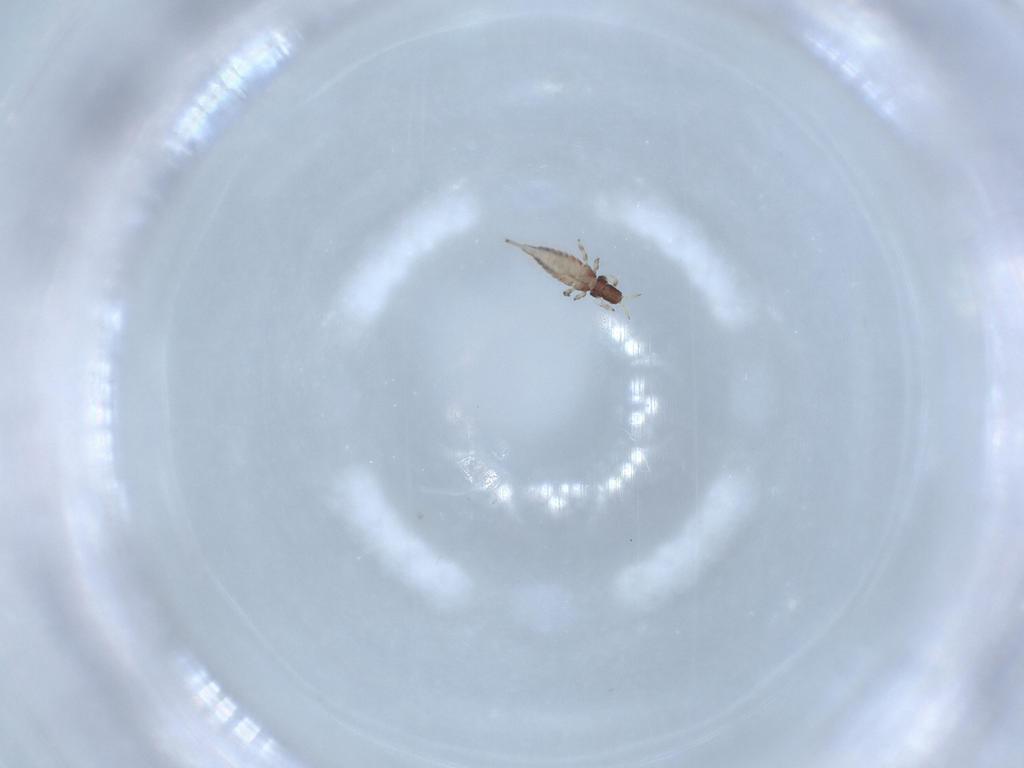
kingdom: Animalia
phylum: Arthropoda
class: Insecta
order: Thysanoptera
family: Phlaeothripidae
